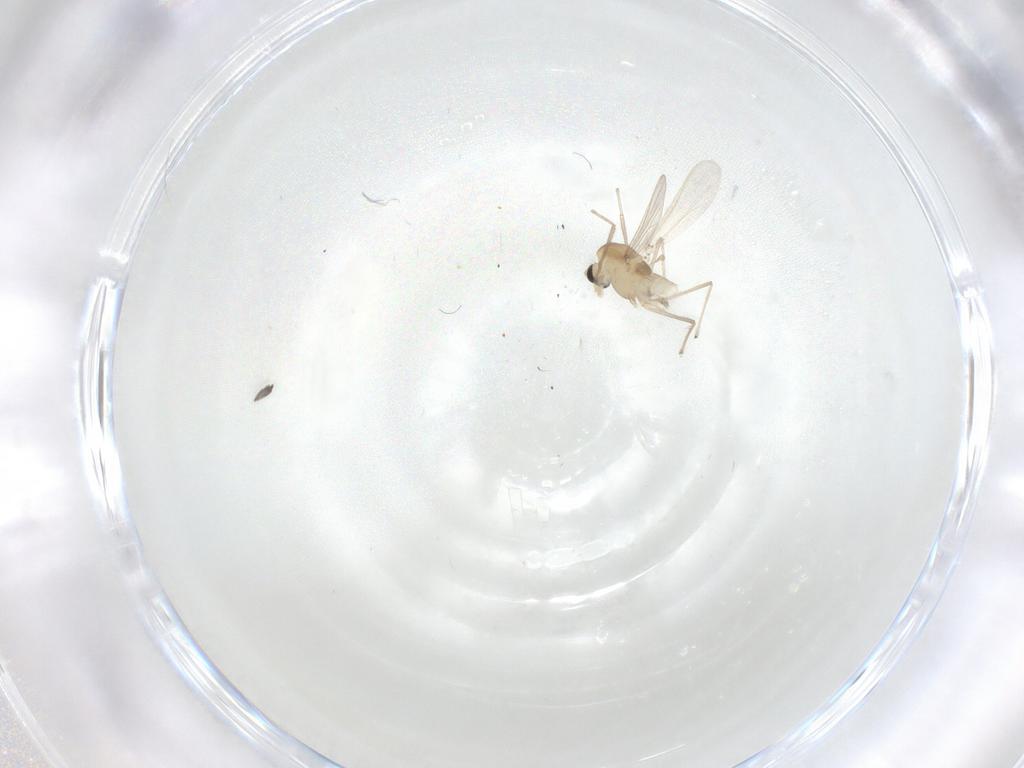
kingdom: Animalia
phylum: Arthropoda
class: Insecta
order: Diptera
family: Chironomidae
